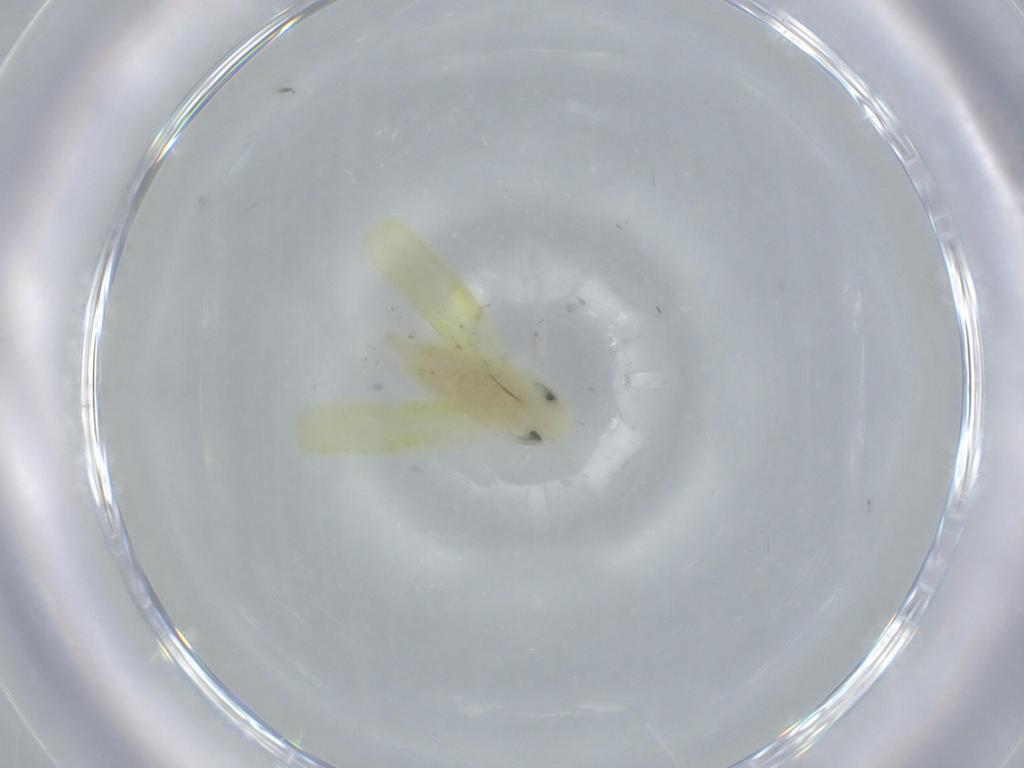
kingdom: Animalia
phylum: Arthropoda
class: Insecta
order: Hemiptera
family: Cicadellidae
